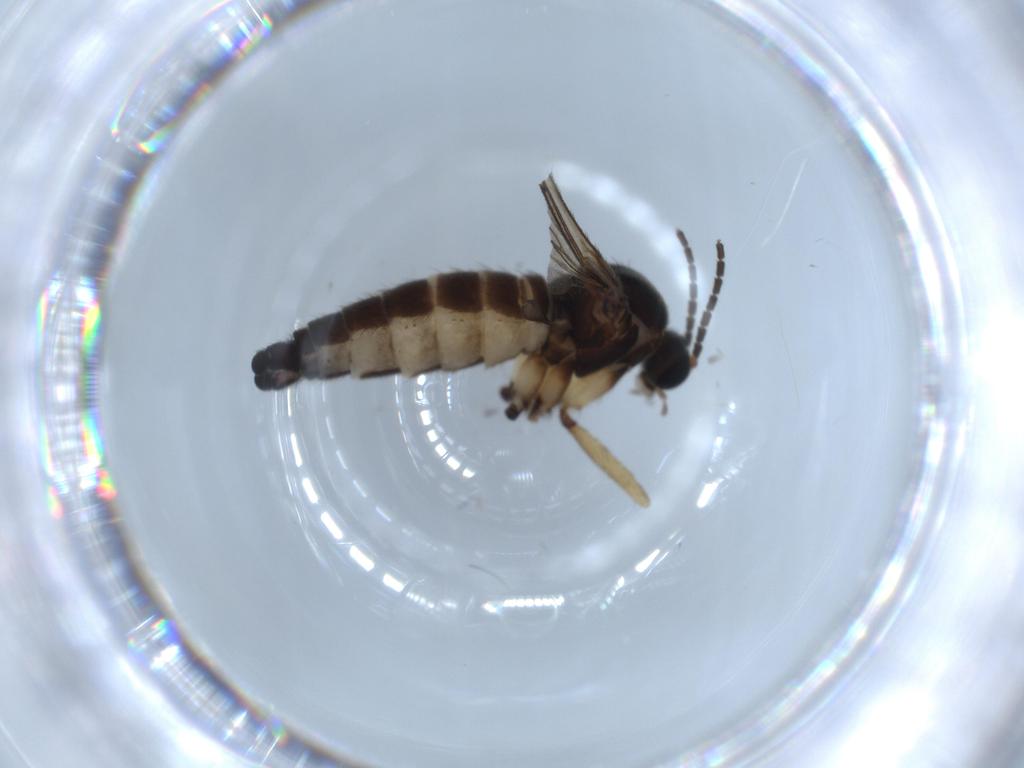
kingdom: Animalia
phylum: Arthropoda
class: Insecta
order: Diptera
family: Sciaridae
